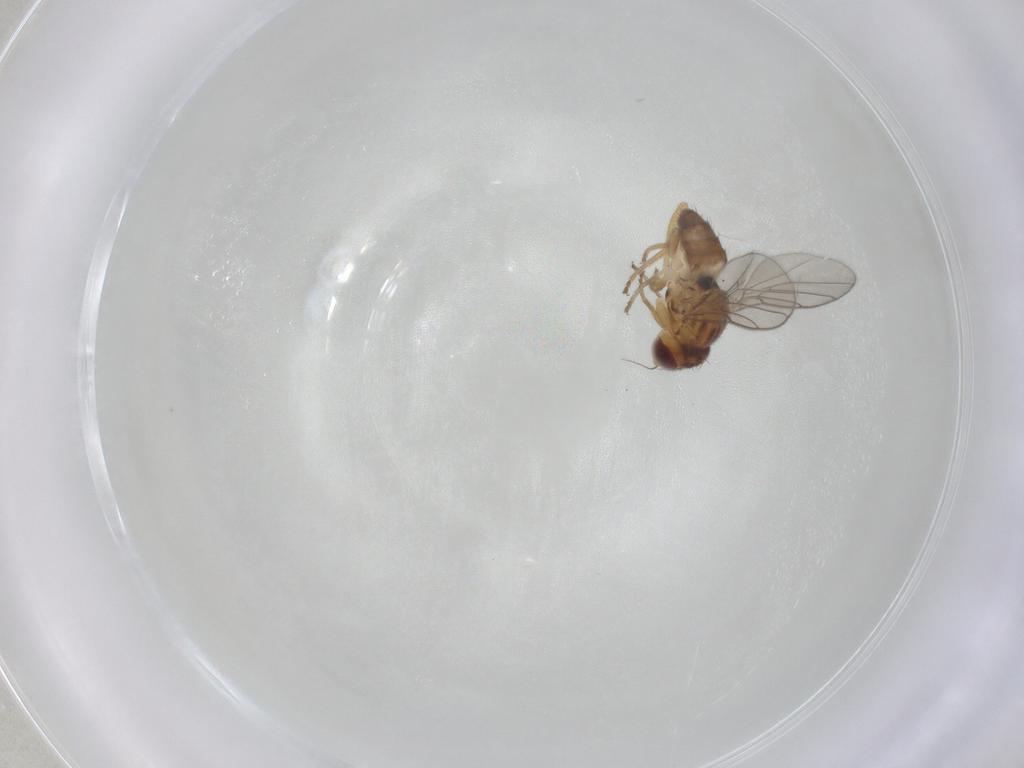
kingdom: Animalia
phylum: Arthropoda
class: Insecta
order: Diptera
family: Chloropidae
